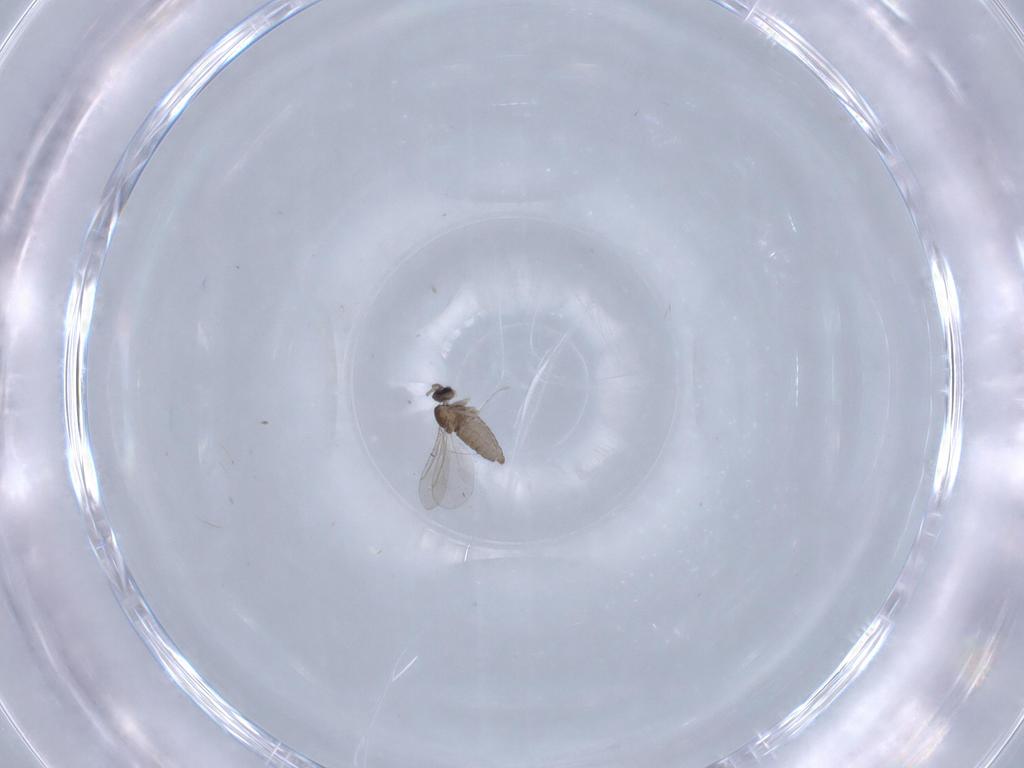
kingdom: Animalia
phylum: Arthropoda
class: Insecta
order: Diptera
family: Cecidomyiidae
